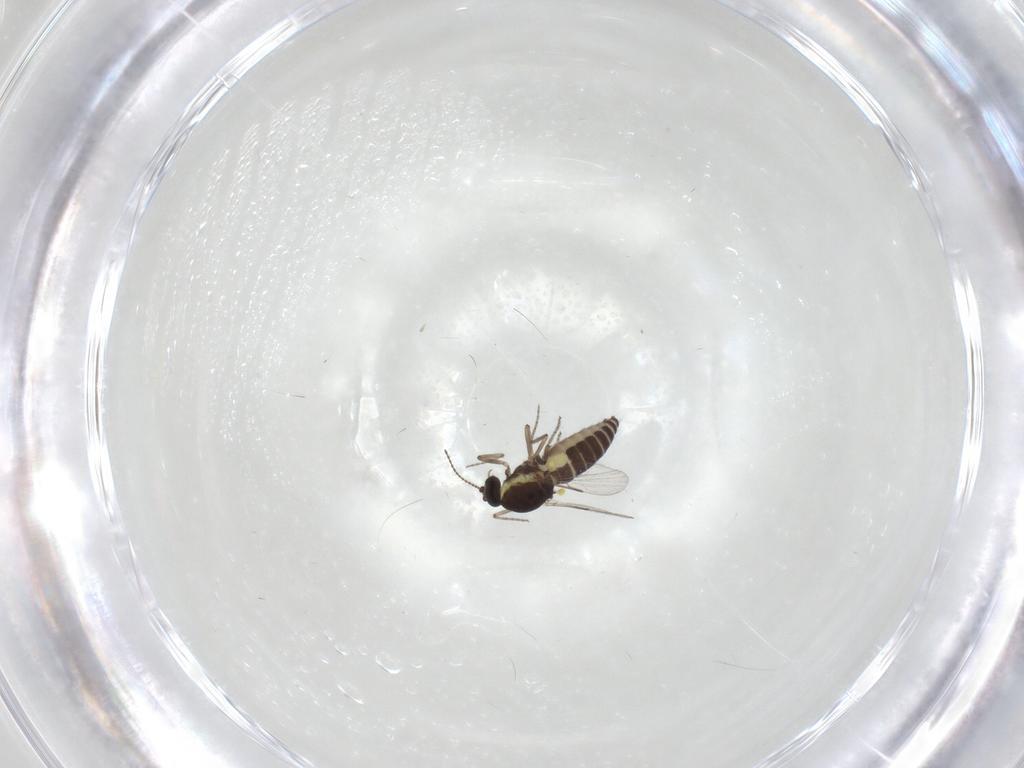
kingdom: Animalia
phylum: Arthropoda
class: Insecta
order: Diptera
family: Ceratopogonidae
